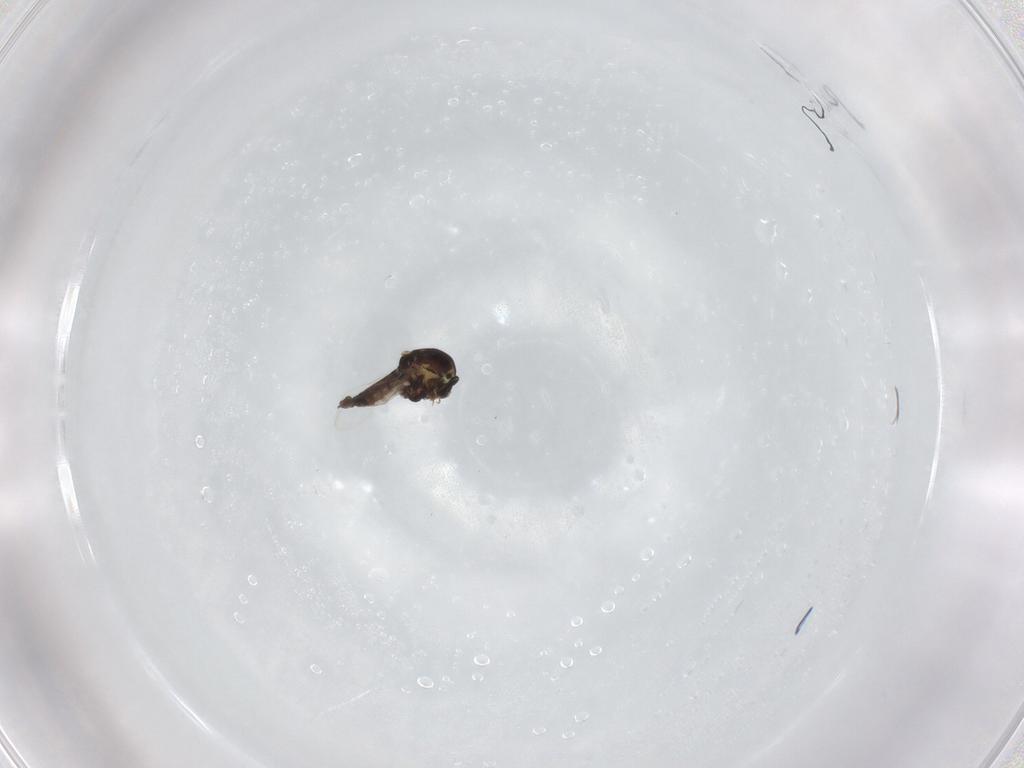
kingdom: Animalia
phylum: Arthropoda
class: Insecta
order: Diptera
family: Ceratopogonidae
